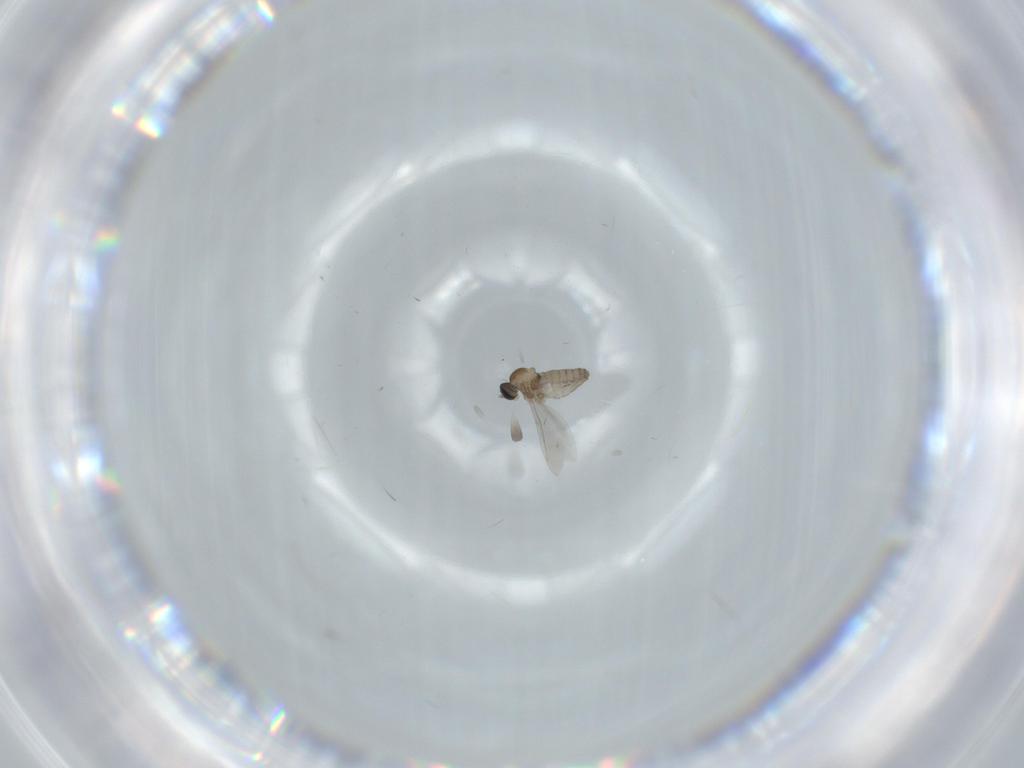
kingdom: Animalia
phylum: Arthropoda
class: Insecta
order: Diptera
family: Cecidomyiidae
